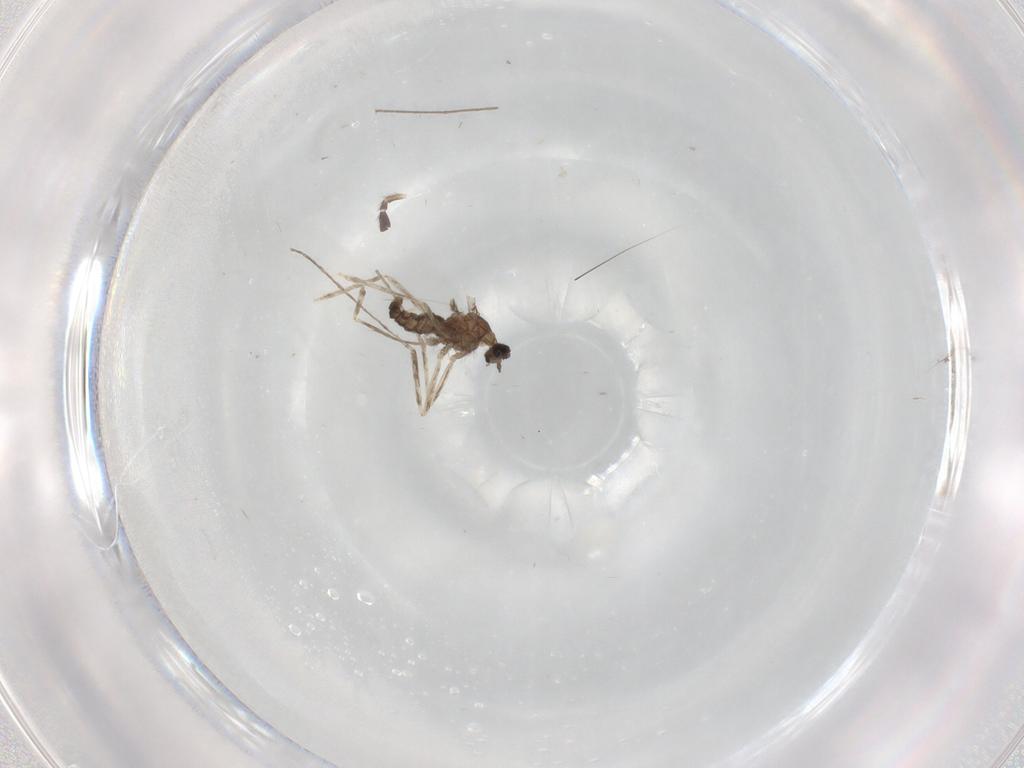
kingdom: Animalia
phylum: Arthropoda
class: Insecta
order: Diptera
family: Cecidomyiidae
